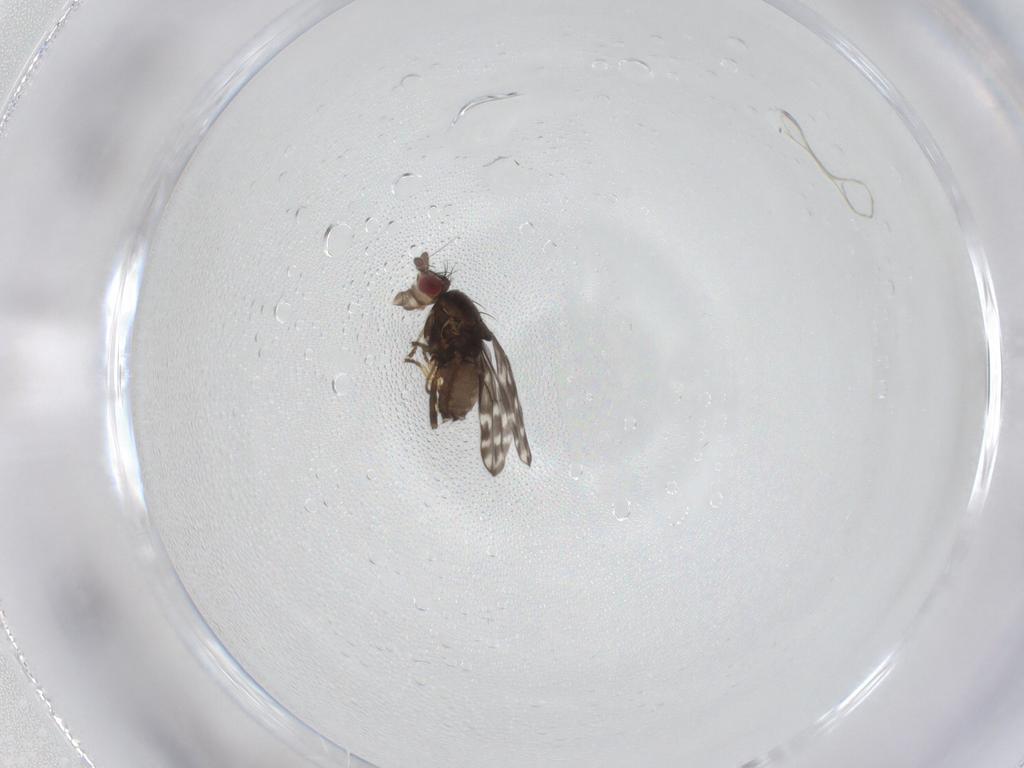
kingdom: Animalia
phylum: Arthropoda
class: Insecta
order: Diptera
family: Sphaeroceridae
